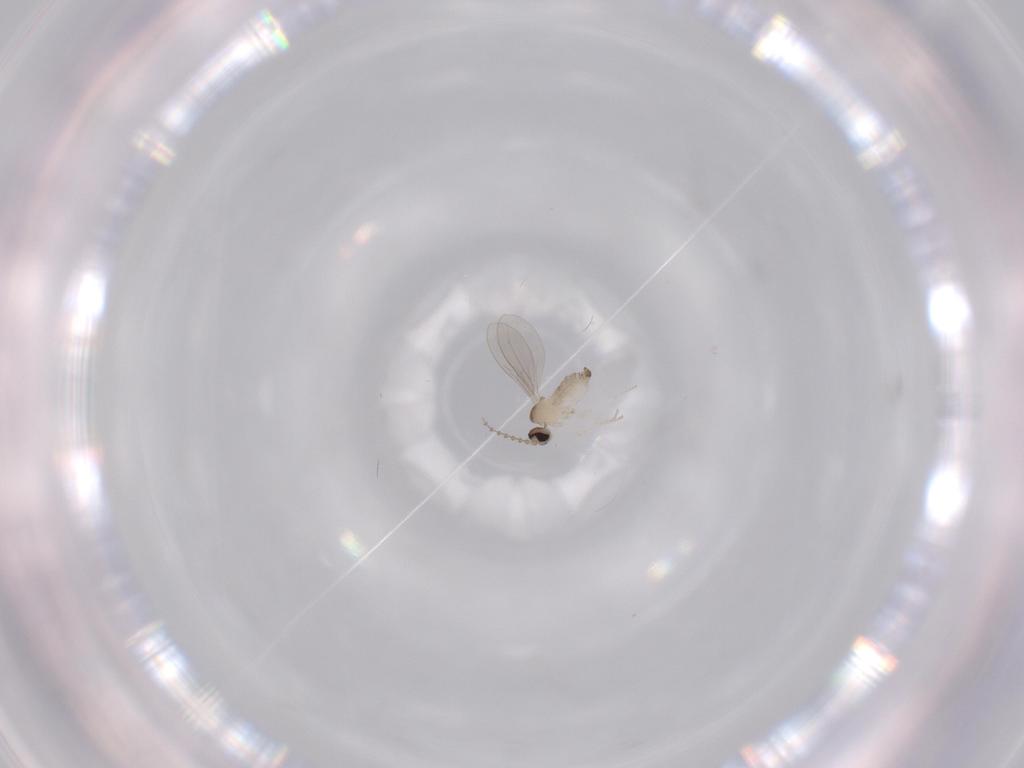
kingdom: Animalia
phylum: Arthropoda
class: Insecta
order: Diptera
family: Cecidomyiidae
